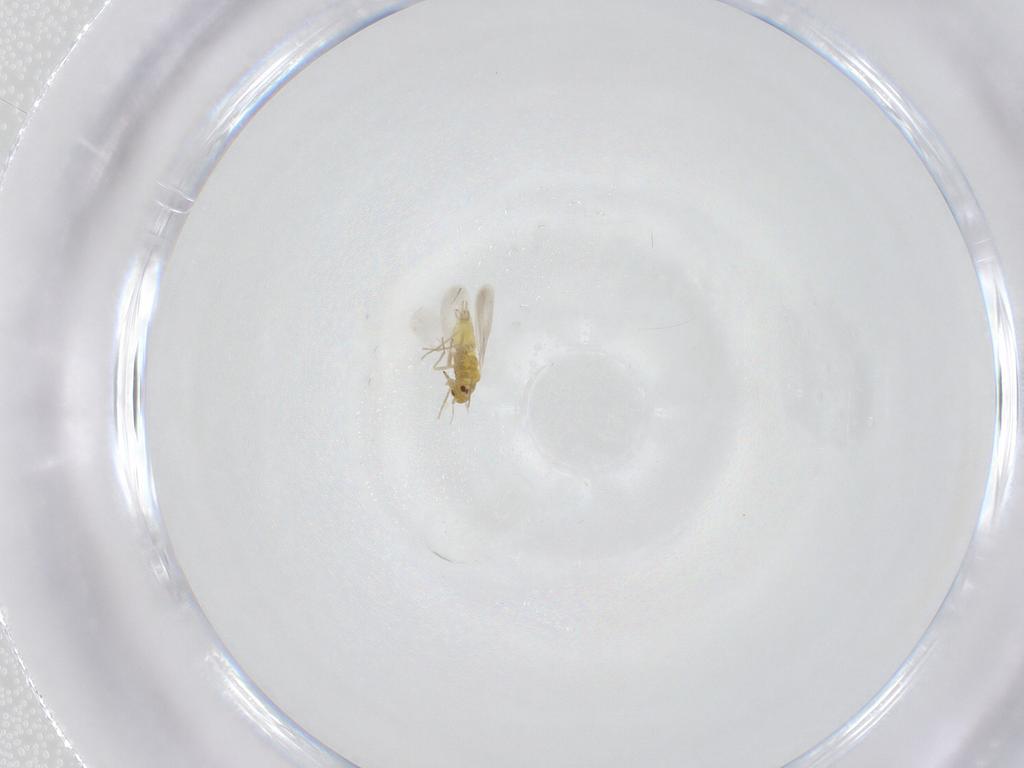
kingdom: Animalia
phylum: Arthropoda
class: Insecta
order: Hemiptera
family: Aleyrodidae
